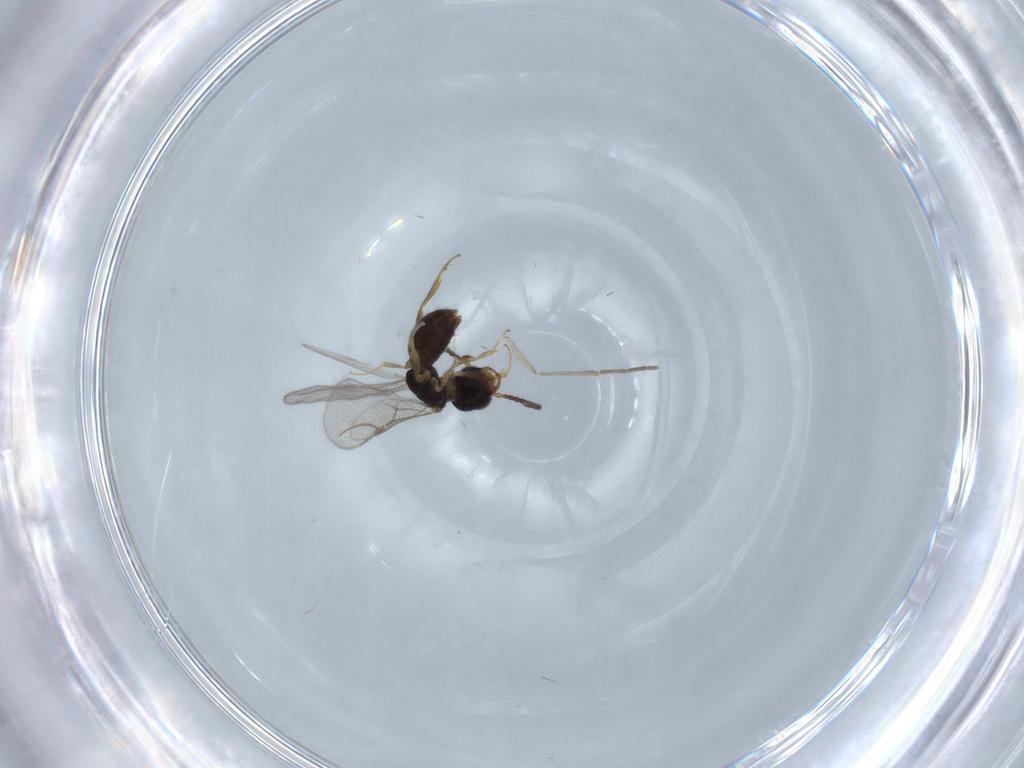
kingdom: Animalia
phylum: Arthropoda
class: Insecta
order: Hymenoptera
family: Bethylidae
